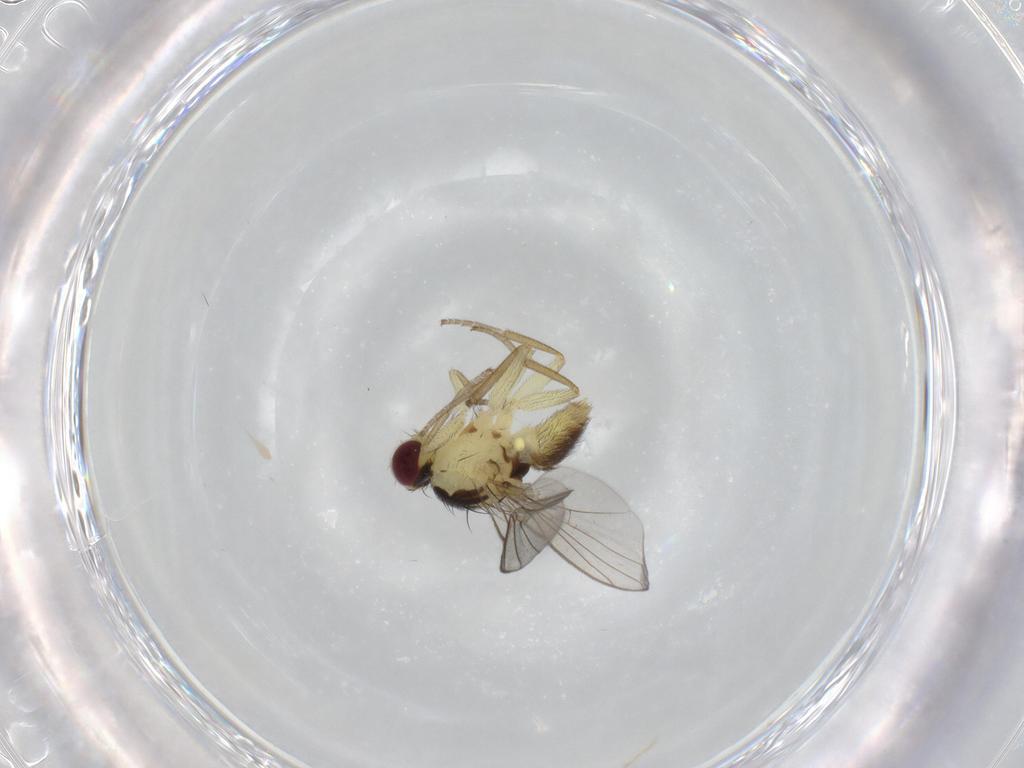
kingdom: Animalia
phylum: Arthropoda
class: Insecta
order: Diptera
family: Agromyzidae
